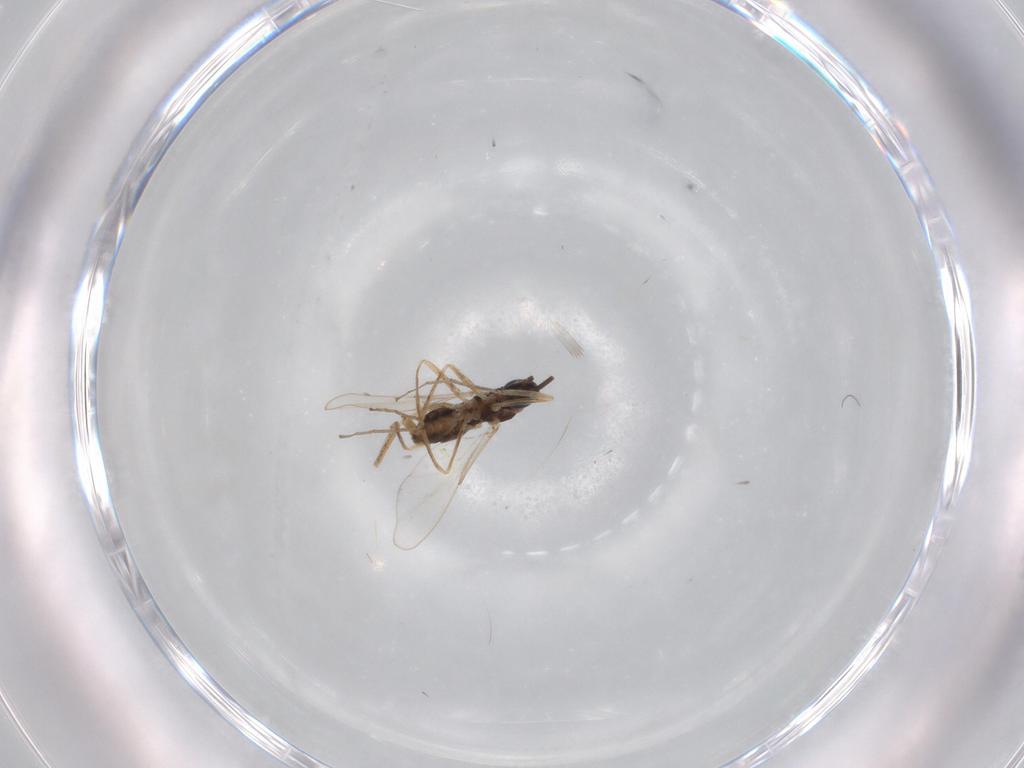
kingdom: Animalia
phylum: Arthropoda
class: Insecta
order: Diptera
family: Cecidomyiidae
